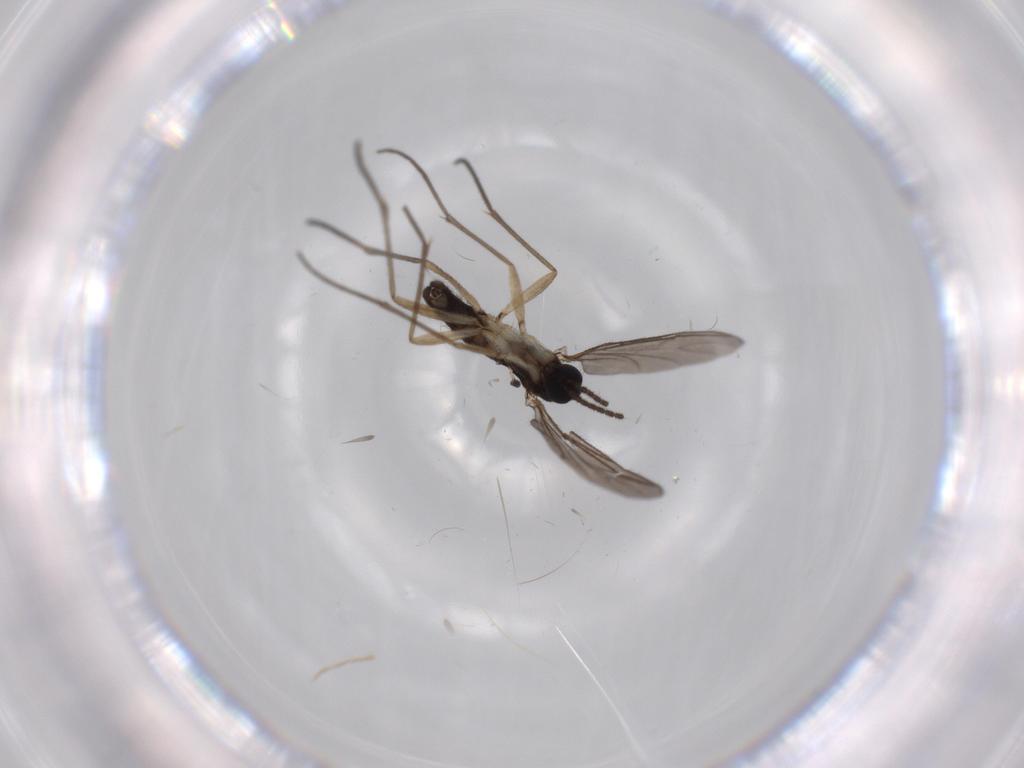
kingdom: Animalia
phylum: Arthropoda
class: Insecta
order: Diptera
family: Sciaridae
